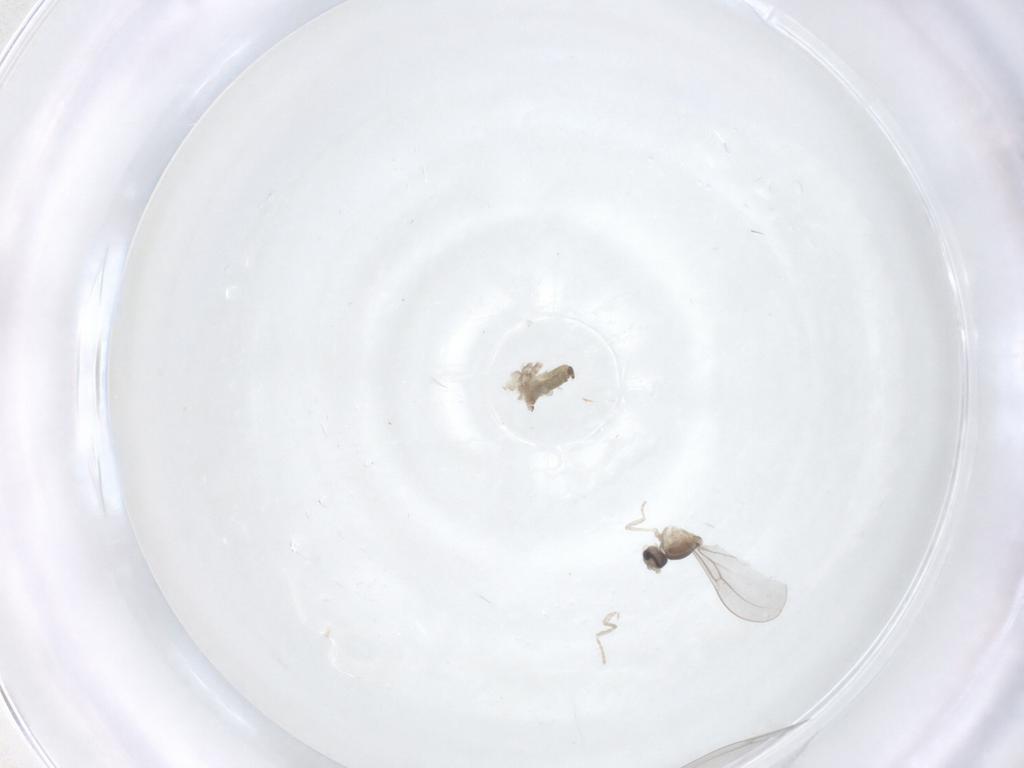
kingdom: Animalia
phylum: Arthropoda
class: Insecta
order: Diptera
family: Cecidomyiidae
